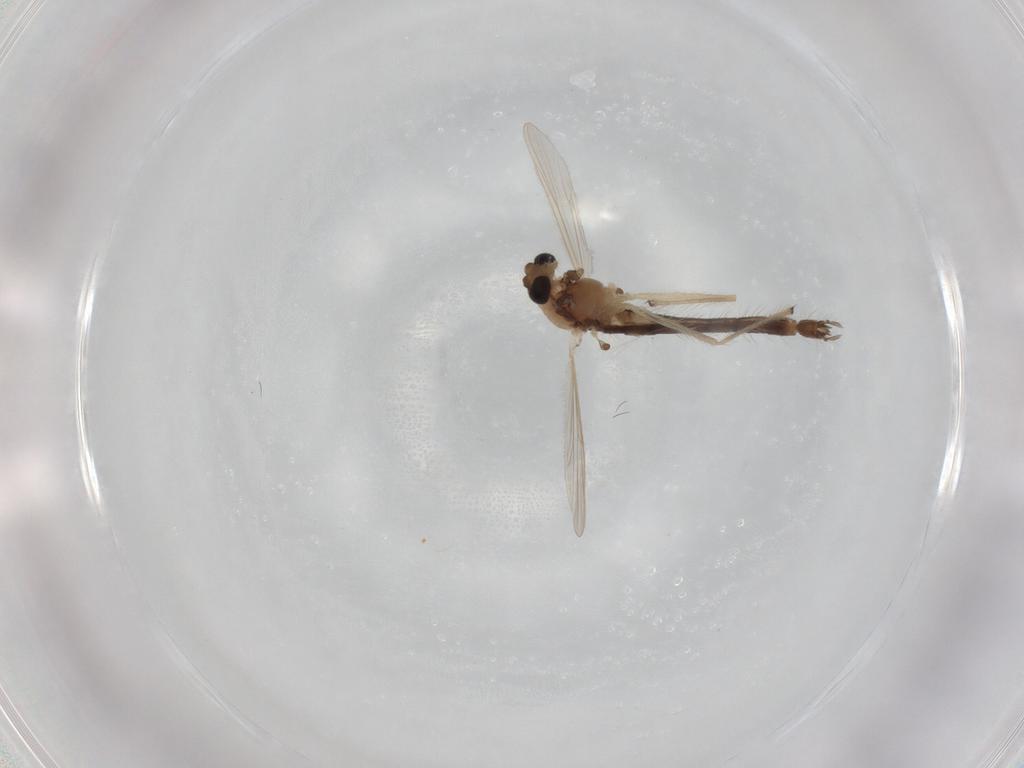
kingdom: Animalia
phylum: Arthropoda
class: Insecta
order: Diptera
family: Chironomidae
